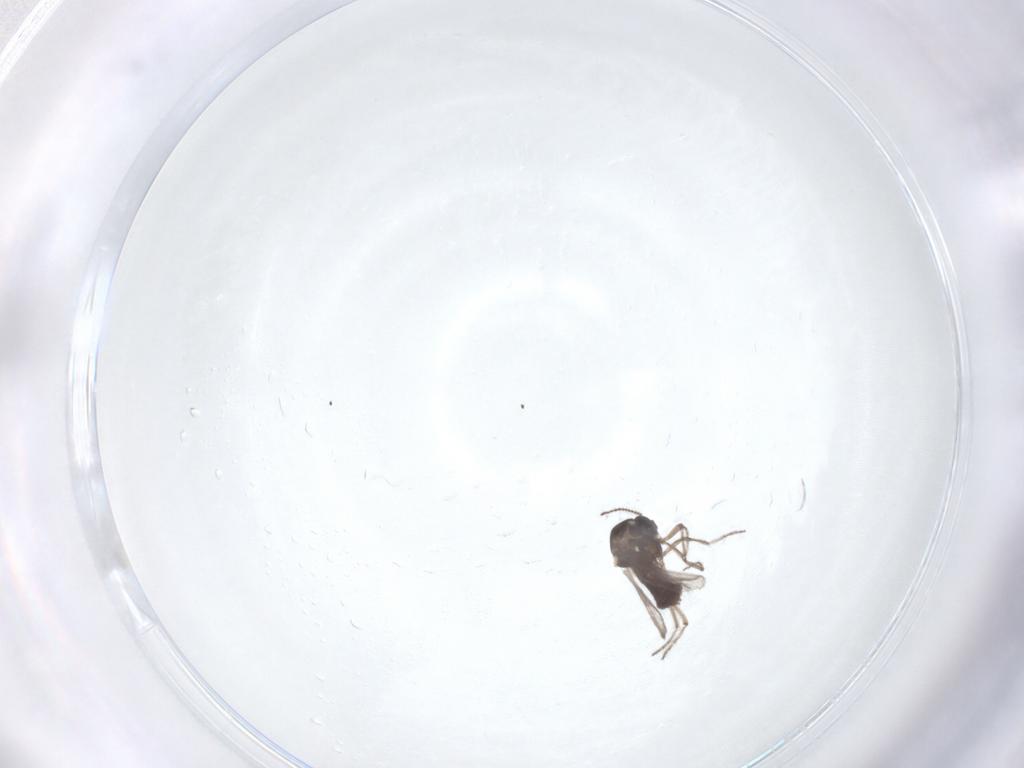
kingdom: Animalia
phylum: Arthropoda
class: Insecta
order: Diptera
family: Ceratopogonidae
